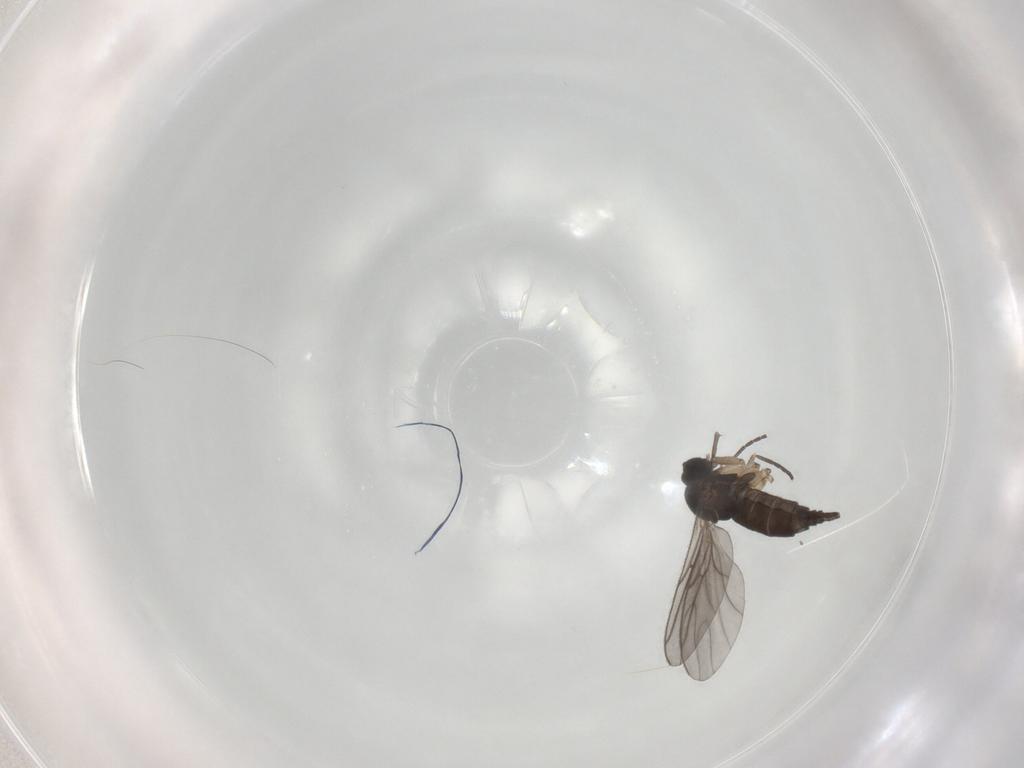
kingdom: Animalia
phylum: Arthropoda
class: Insecta
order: Diptera
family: Sciaridae
